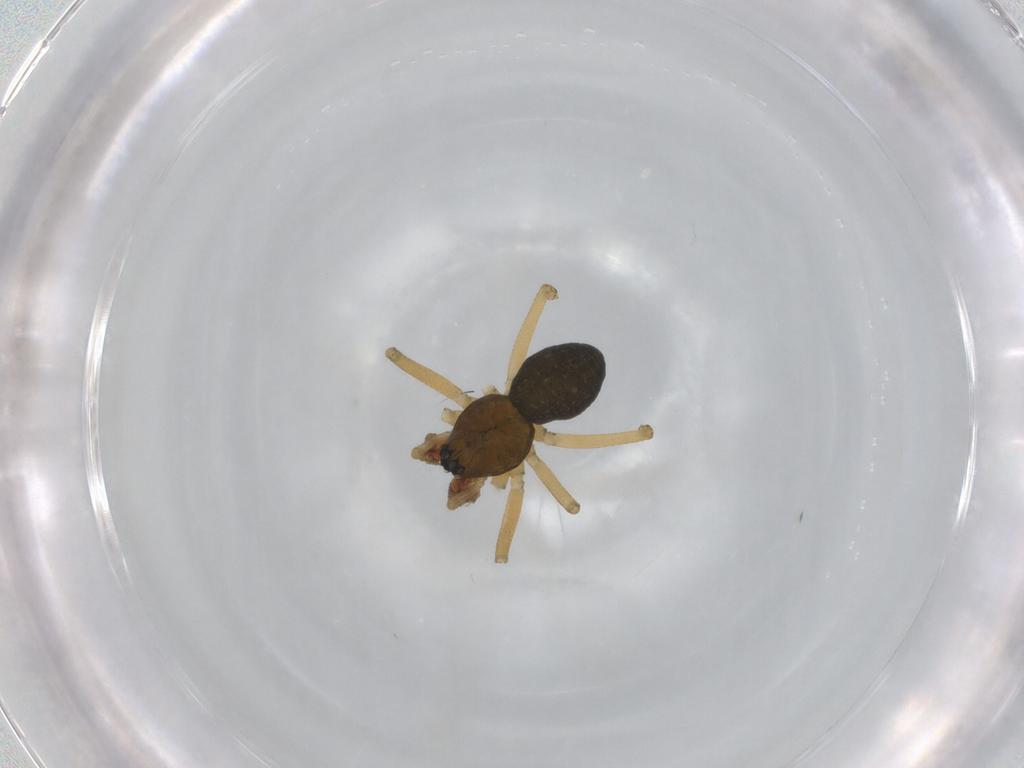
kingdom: Animalia
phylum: Arthropoda
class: Arachnida
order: Araneae
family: Linyphiidae
